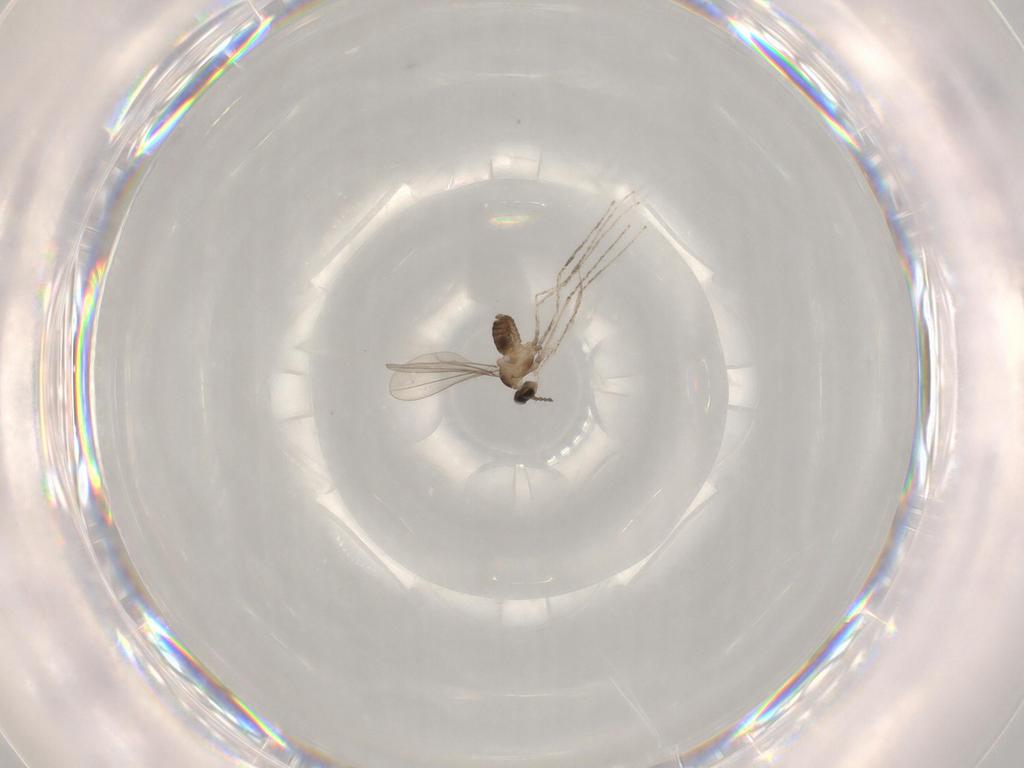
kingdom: Animalia
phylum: Arthropoda
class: Insecta
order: Diptera
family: Cecidomyiidae
